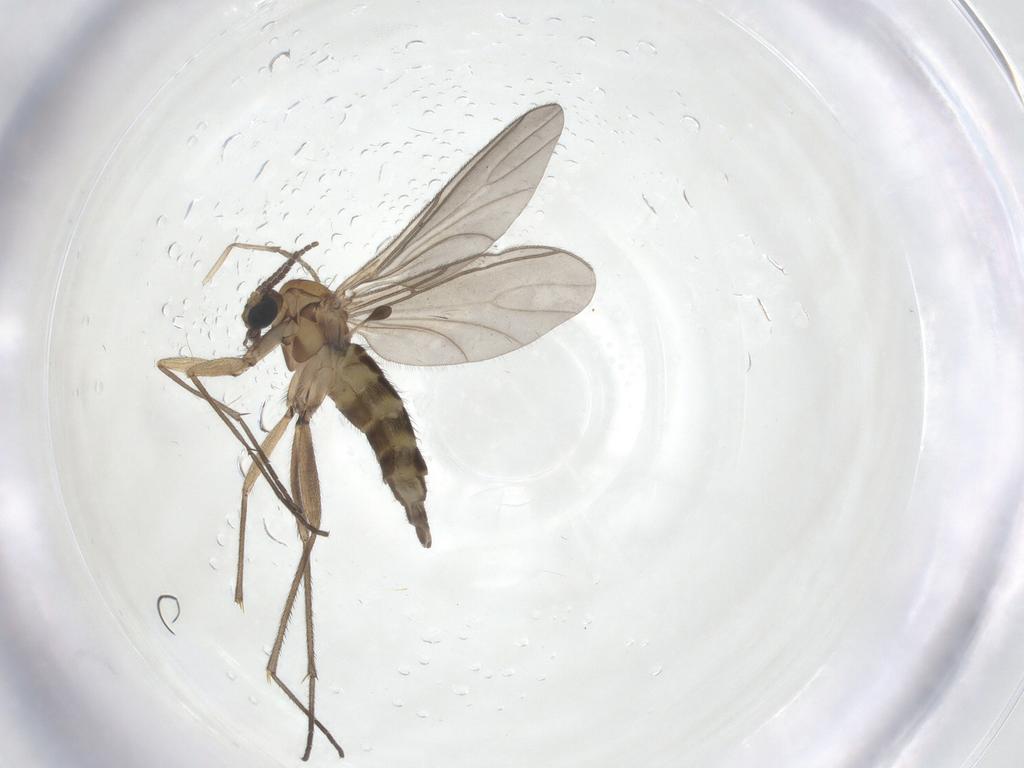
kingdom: Animalia
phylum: Arthropoda
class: Insecta
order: Diptera
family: Sciaridae
